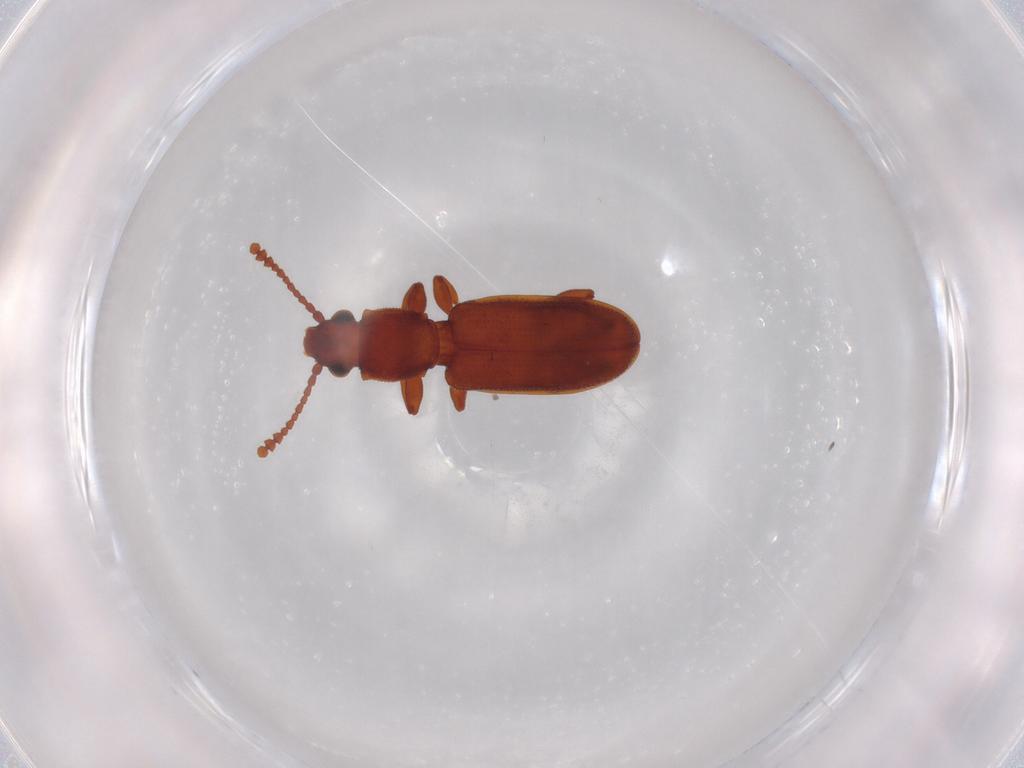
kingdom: Animalia
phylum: Arthropoda
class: Insecta
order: Coleoptera
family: Silvanidae
